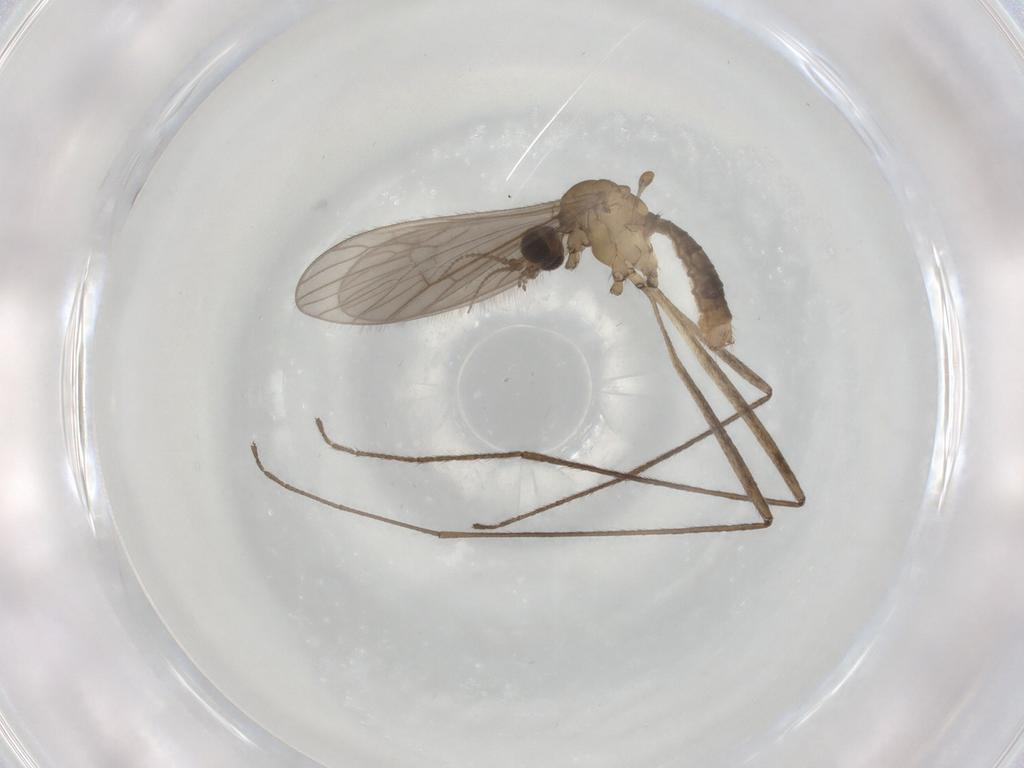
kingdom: Animalia
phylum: Arthropoda
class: Insecta
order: Diptera
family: Limoniidae
